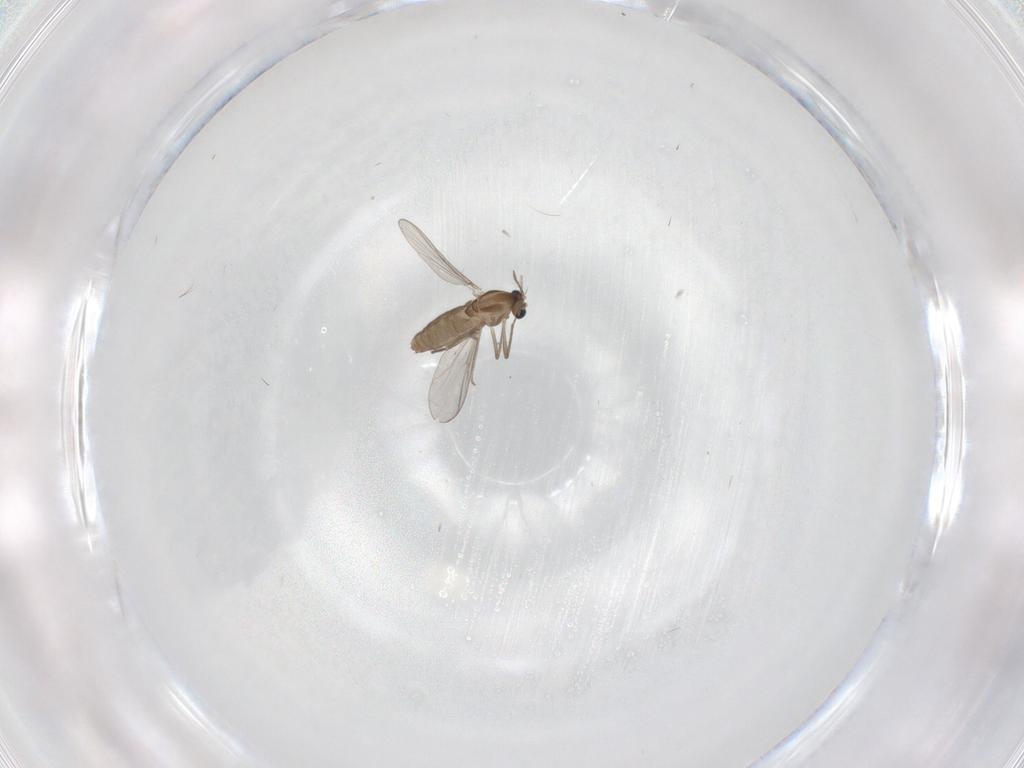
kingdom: Animalia
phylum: Arthropoda
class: Insecta
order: Diptera
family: Chironomidae
